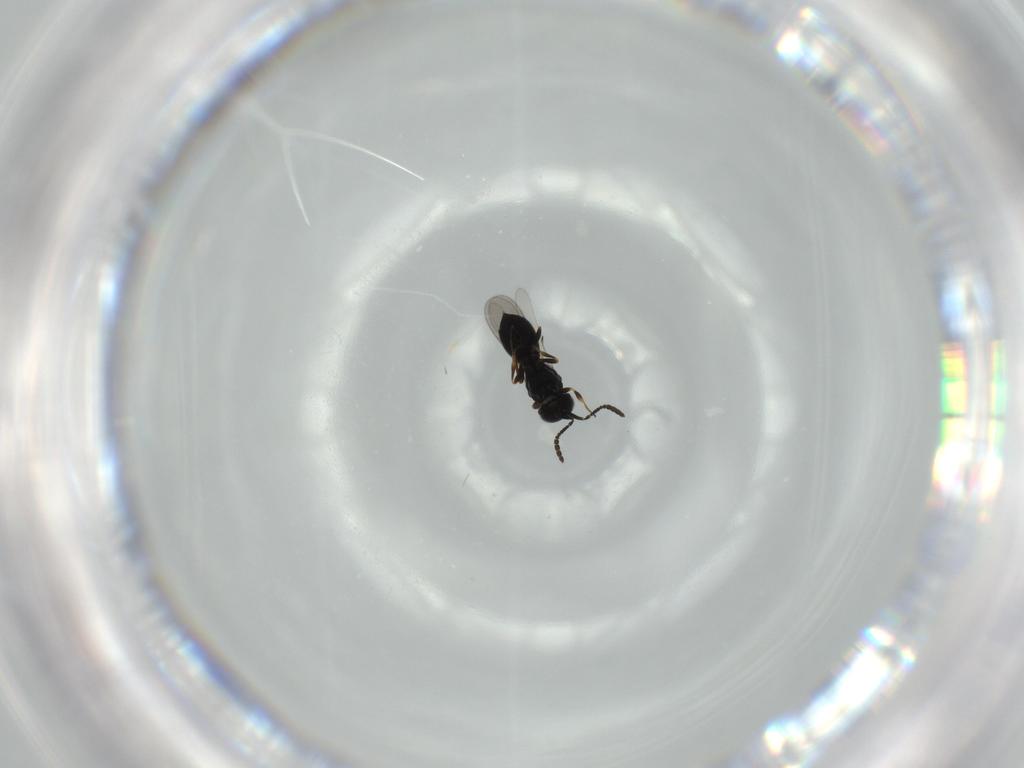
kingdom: Animalia
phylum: Arthropoda
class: Insecta
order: Hymenoptera
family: Scelionidae
